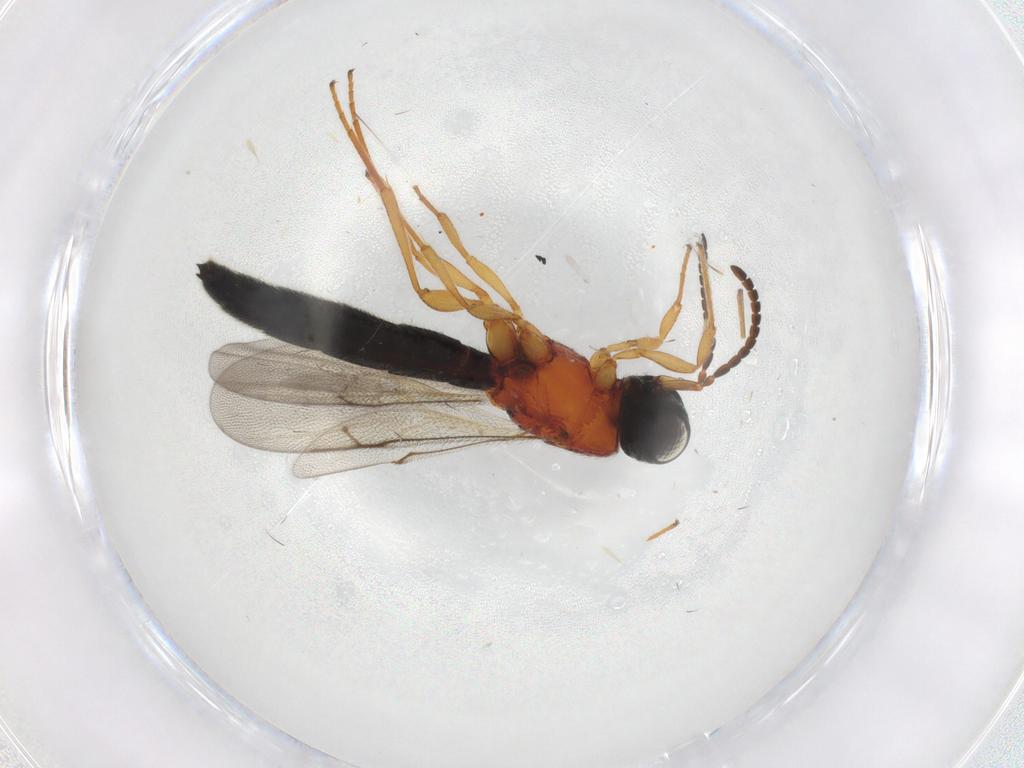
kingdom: Animalia
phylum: Arthropoda
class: Insecta
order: Hymenoptera
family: Scelionidae
